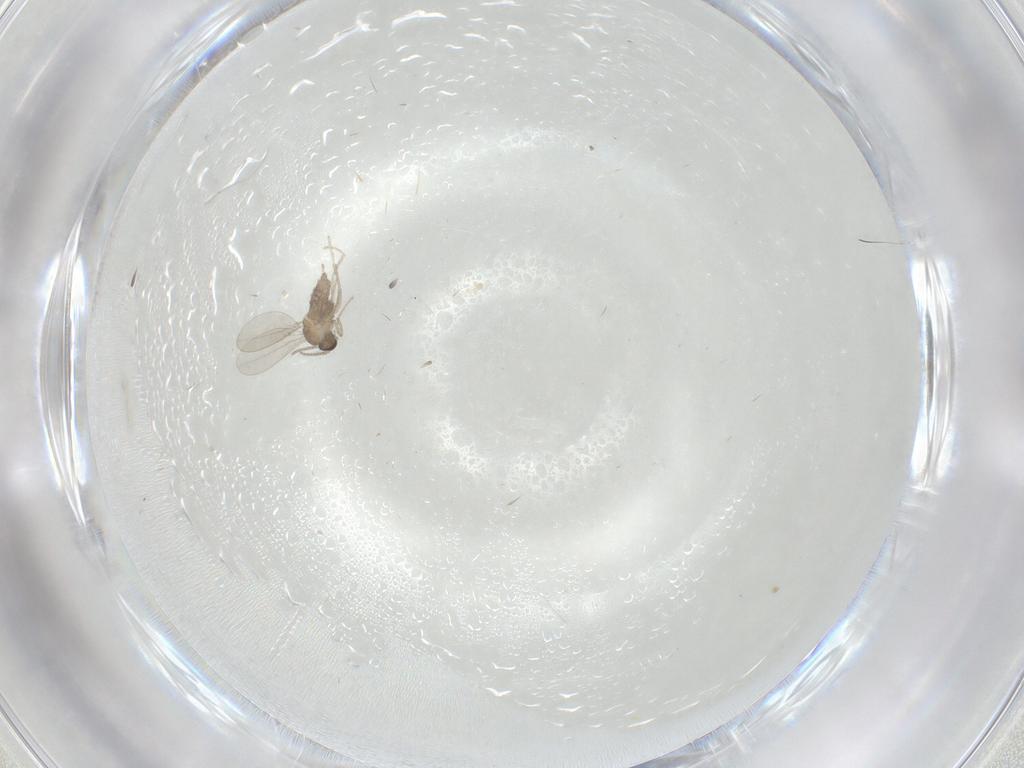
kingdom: Animalia
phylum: Arthropoda
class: Insecta
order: Diptera
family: Cecidomyiidae
